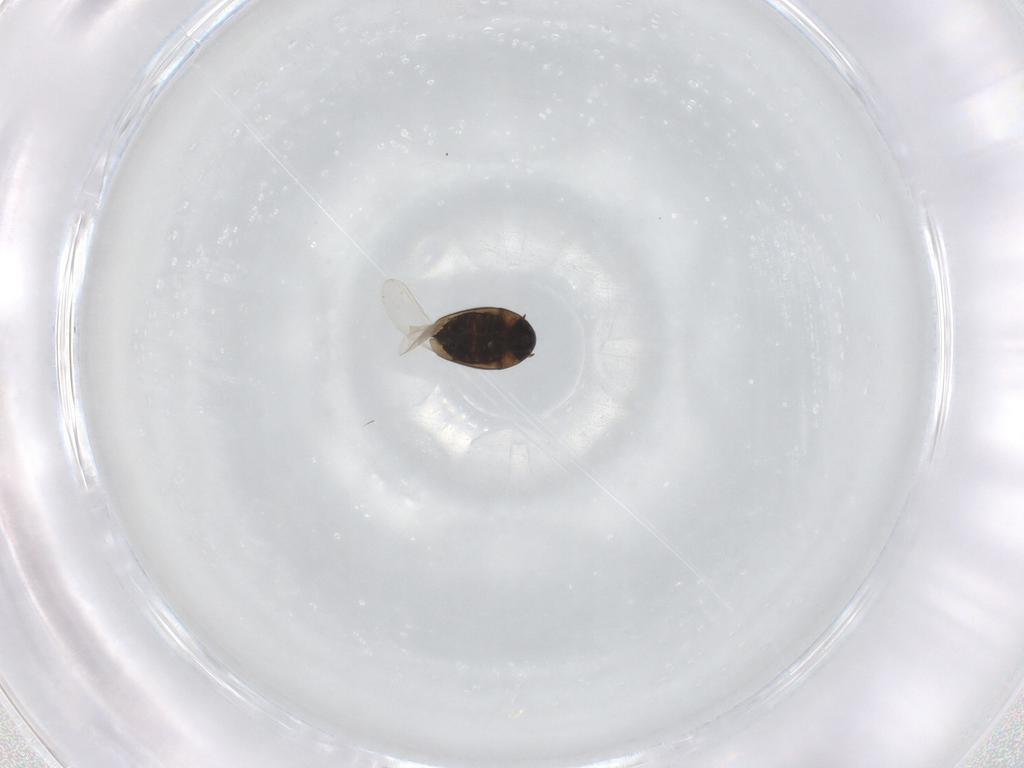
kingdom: Animalia
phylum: Arthropoda
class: Insecta
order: Coleoptera
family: Hydraenidae
